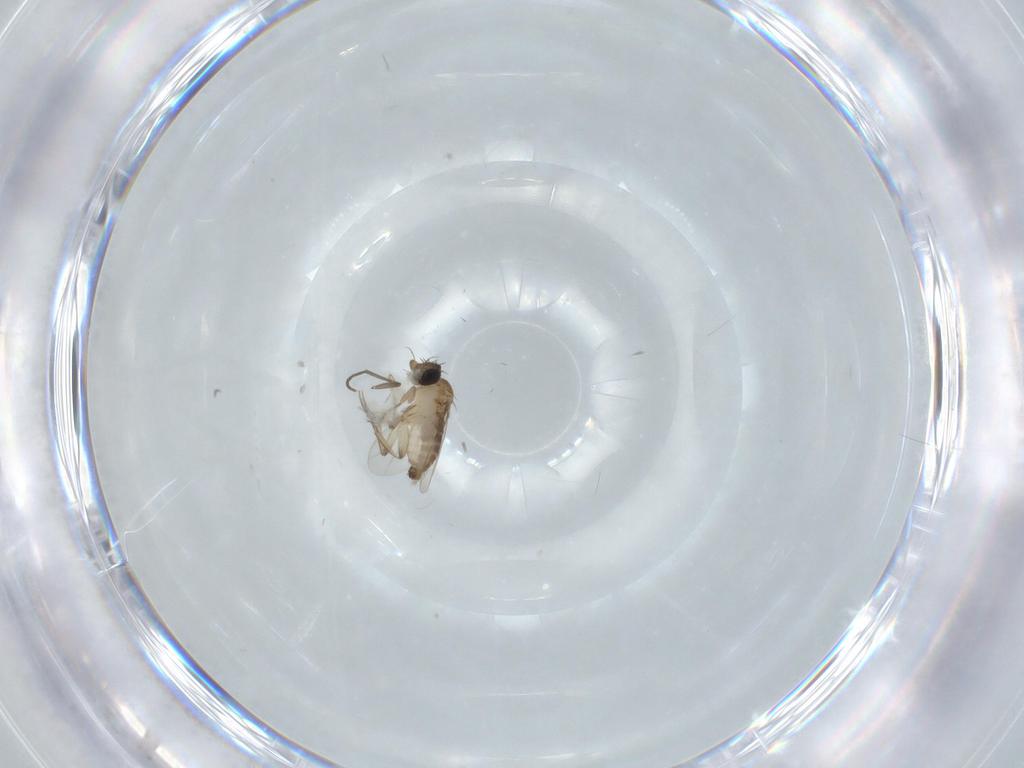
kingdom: Animalia
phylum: Arthropoda
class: Insecta
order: Diptera
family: Phoridae
